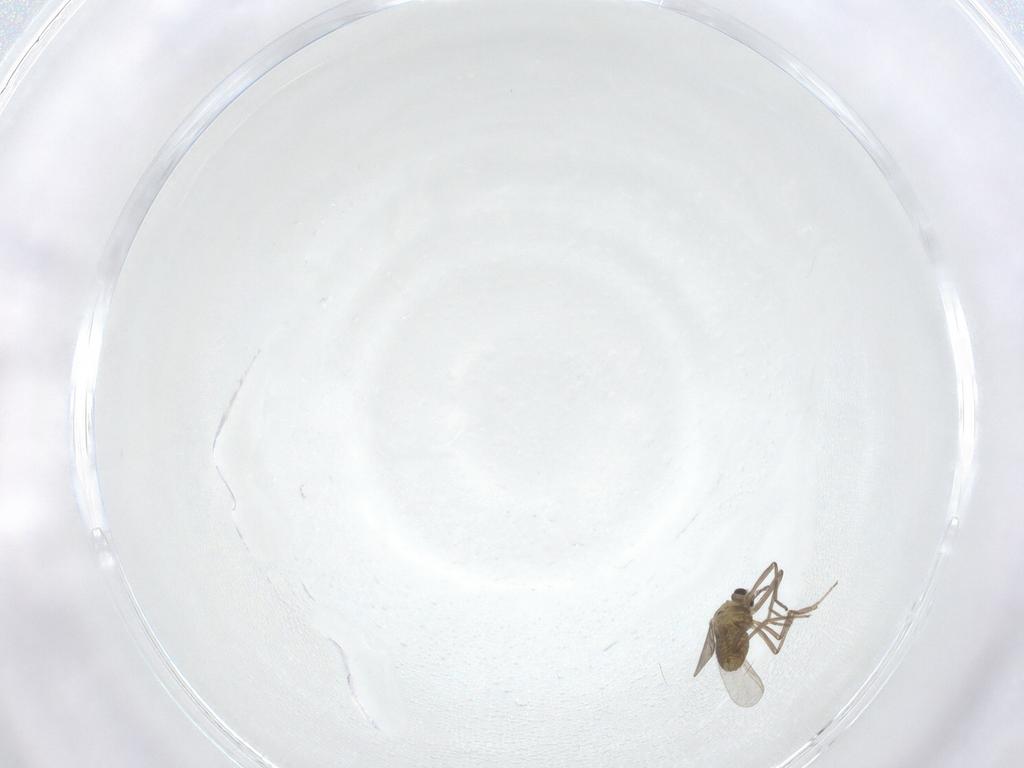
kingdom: Animalia
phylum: Arthropoda
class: Insecta
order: Diptera
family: Chironomidae
